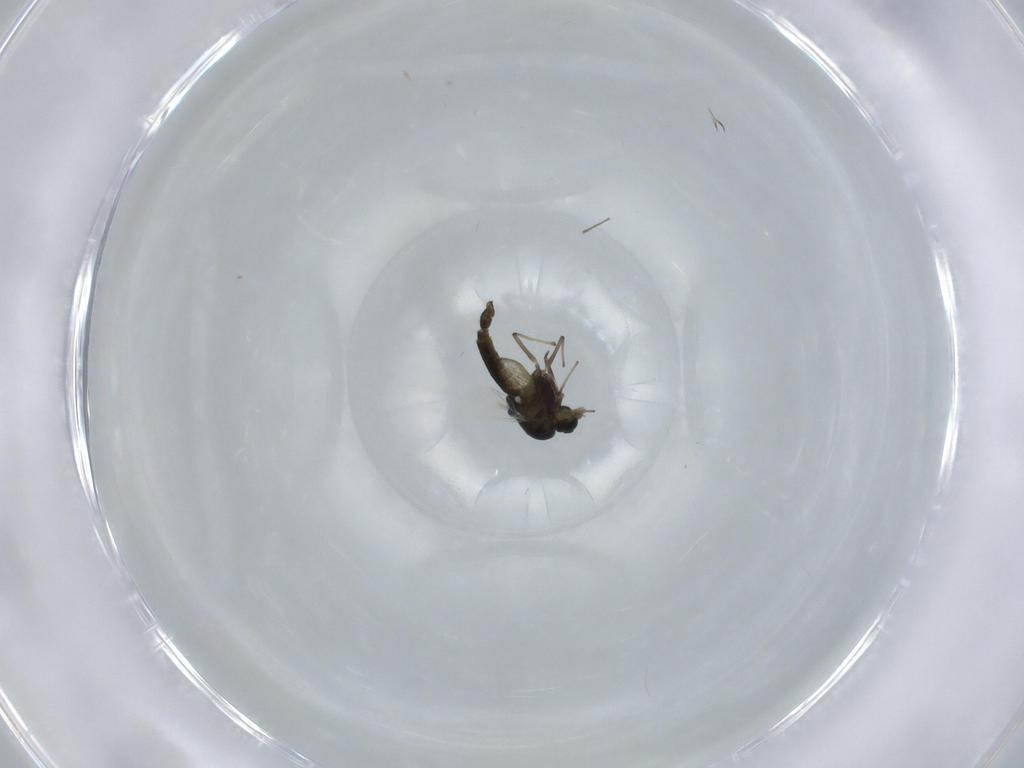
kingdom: Animalia
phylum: Arthropoda
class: Insecta
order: Diptera
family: Chironomidae
